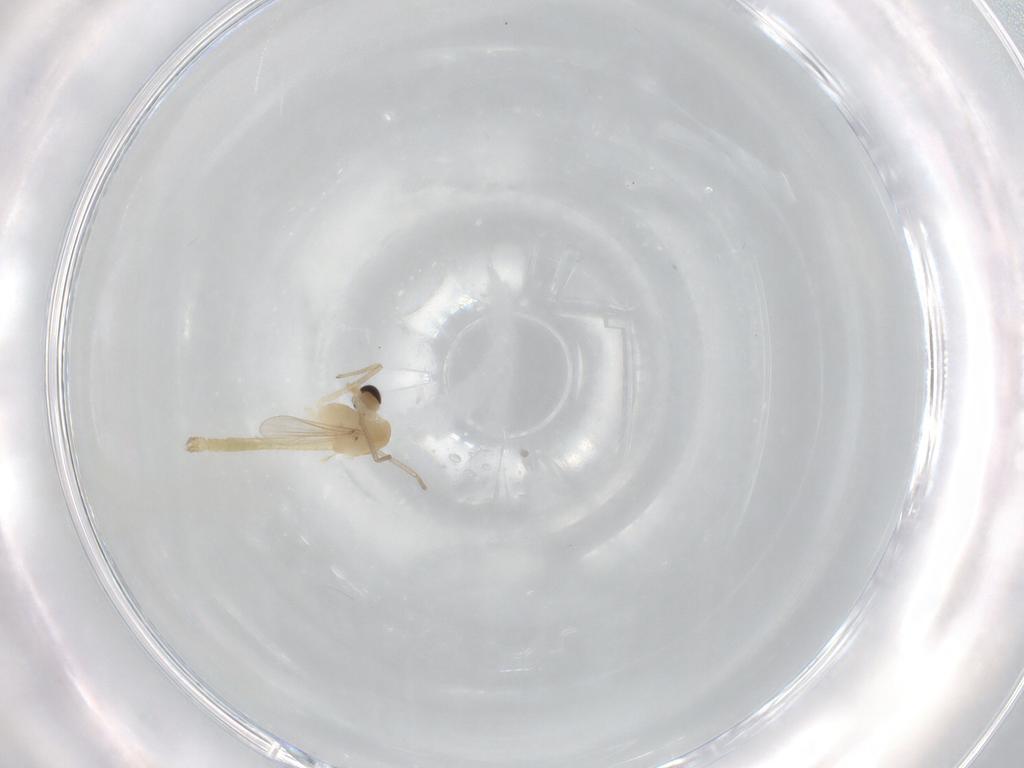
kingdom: Animalia
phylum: Arthropoda
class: Insecta
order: Diptera
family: Chironomidae
